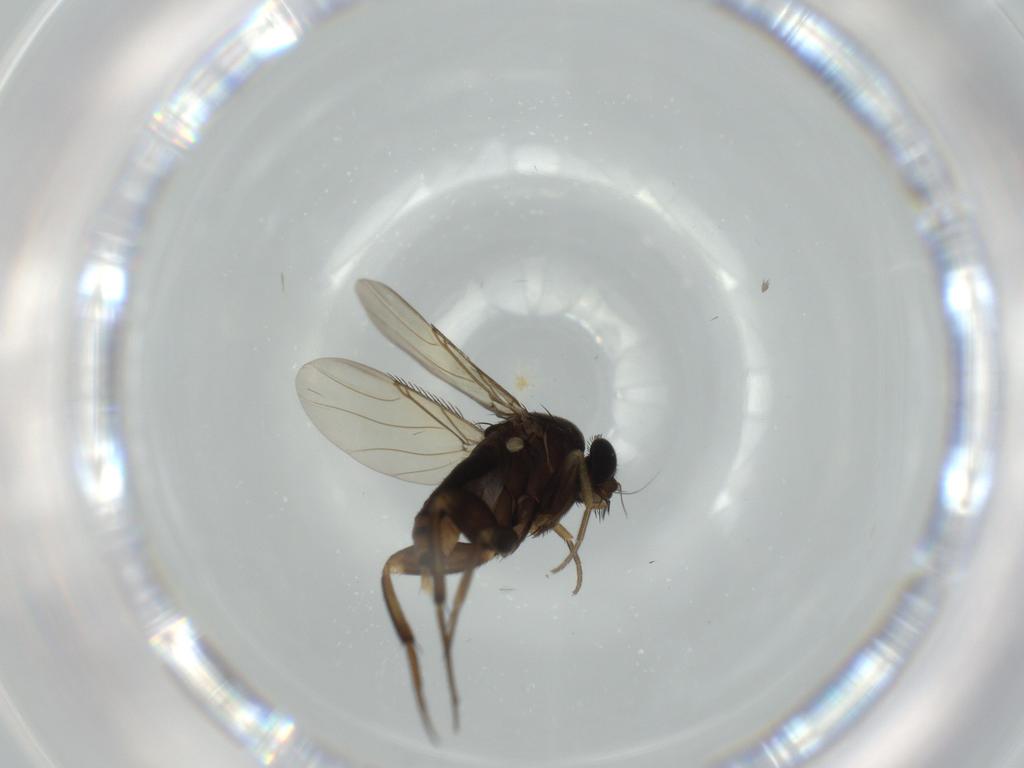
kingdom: Animalia
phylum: Arthropoda
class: Insecta
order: Diptera
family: Phoridae
